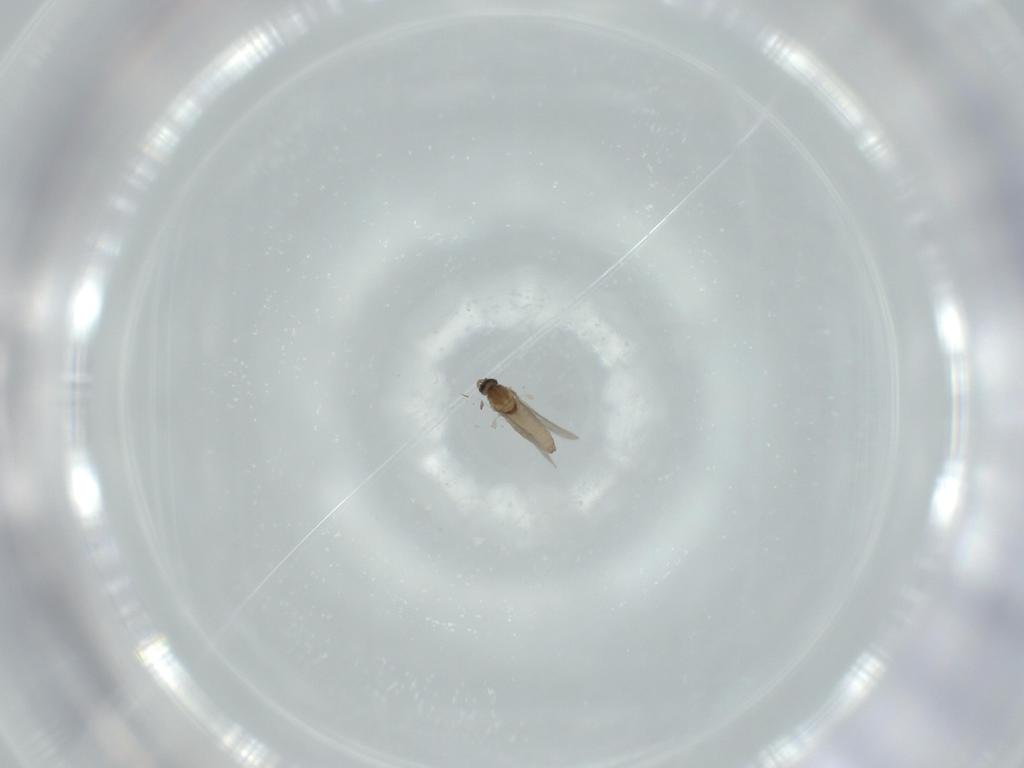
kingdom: Animalia
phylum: Arthropoda
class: Insecta
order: Diptera
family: Cecidomyiidae
